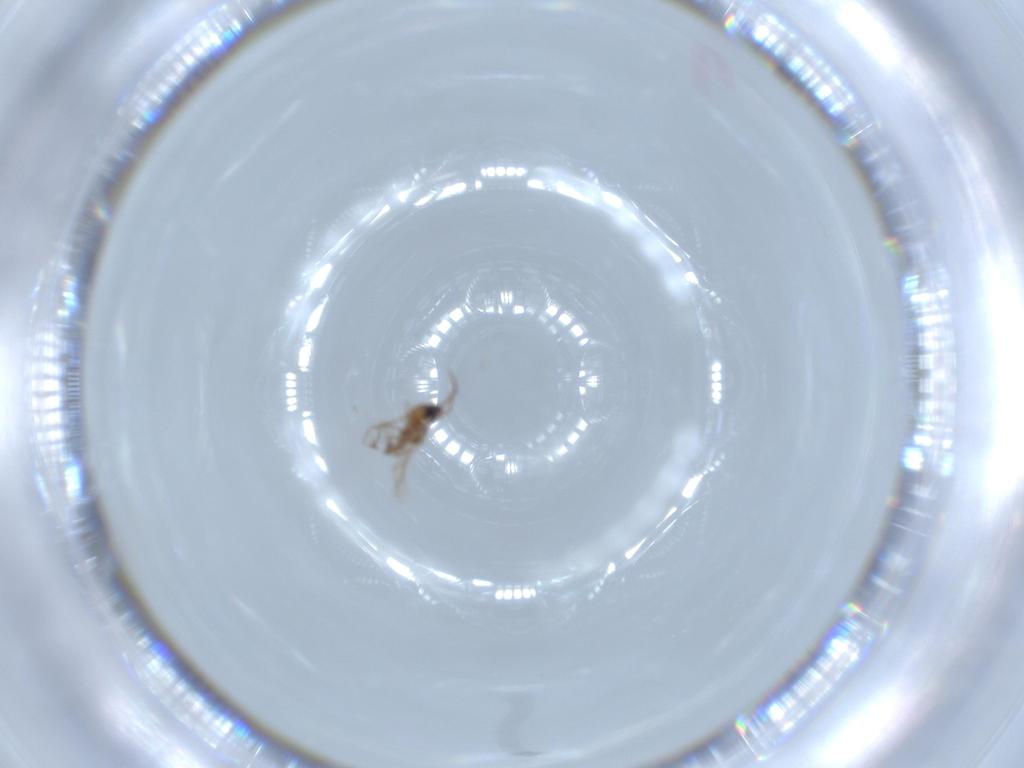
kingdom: Animalia
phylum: Arthropoda
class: Insecta
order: Diptera
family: Cecidomyiidae
